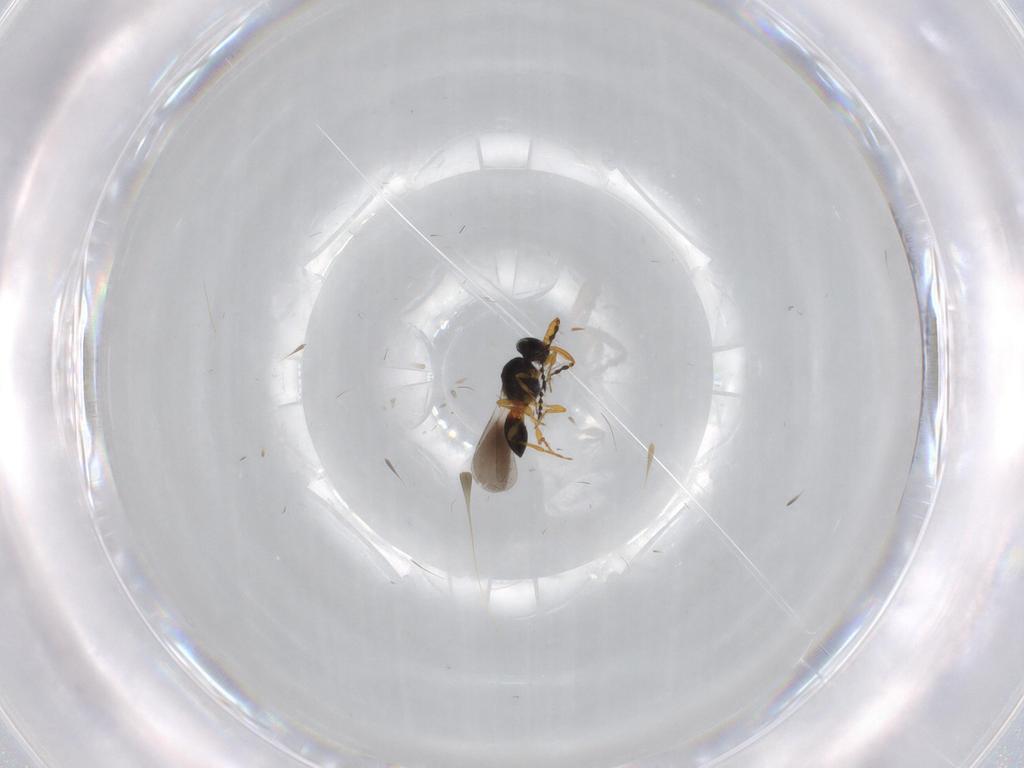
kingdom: Animalia
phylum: Arthropoda
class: Insecta
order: Hymenoptera
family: Platygastridae
